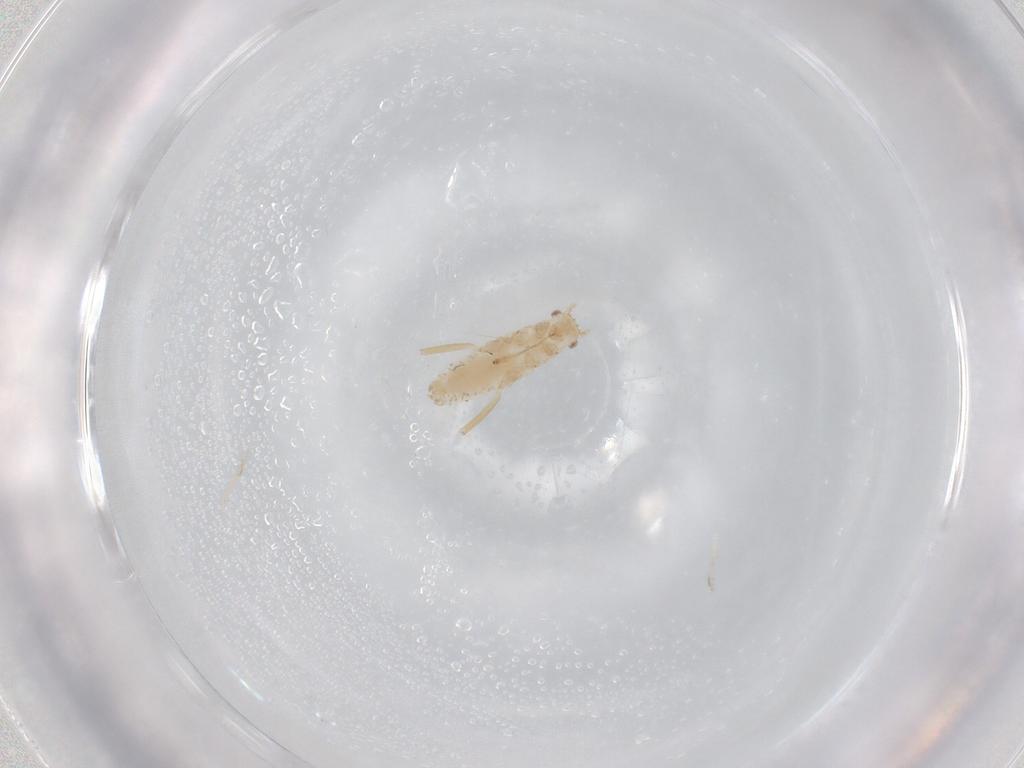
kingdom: Animalia
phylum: Arthropoda
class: Insecta
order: Hemiptera
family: Aphididae
